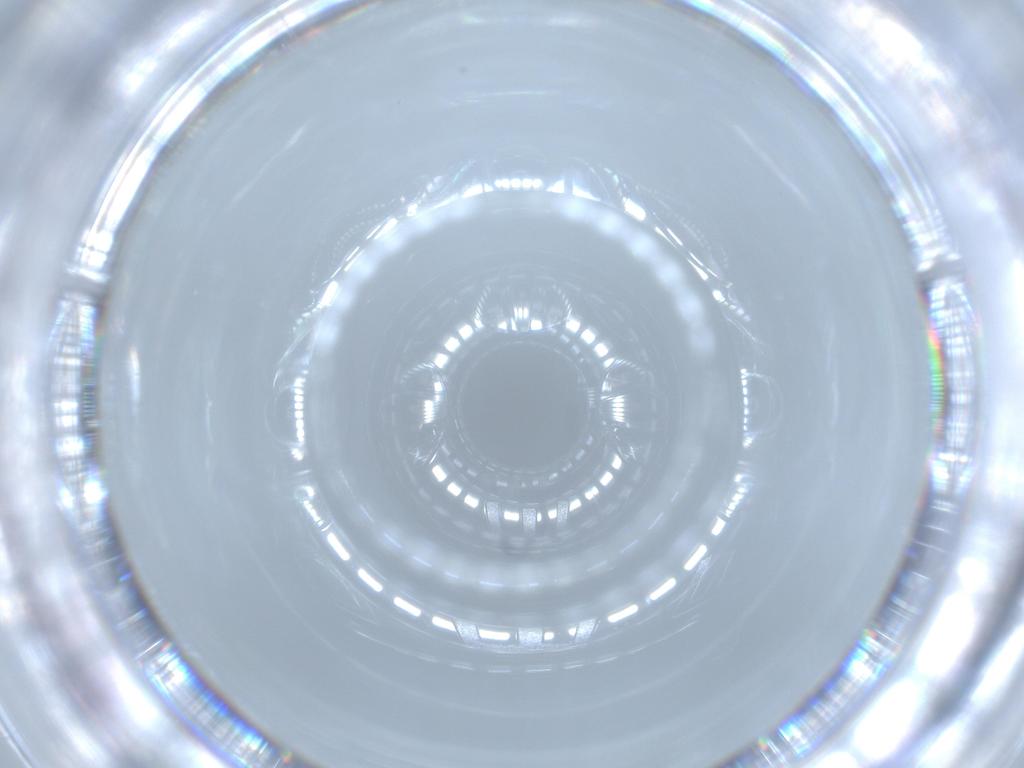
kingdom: Animalia
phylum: Arthropoda
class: Insecta
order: Diptera
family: Cecidomyiidae
